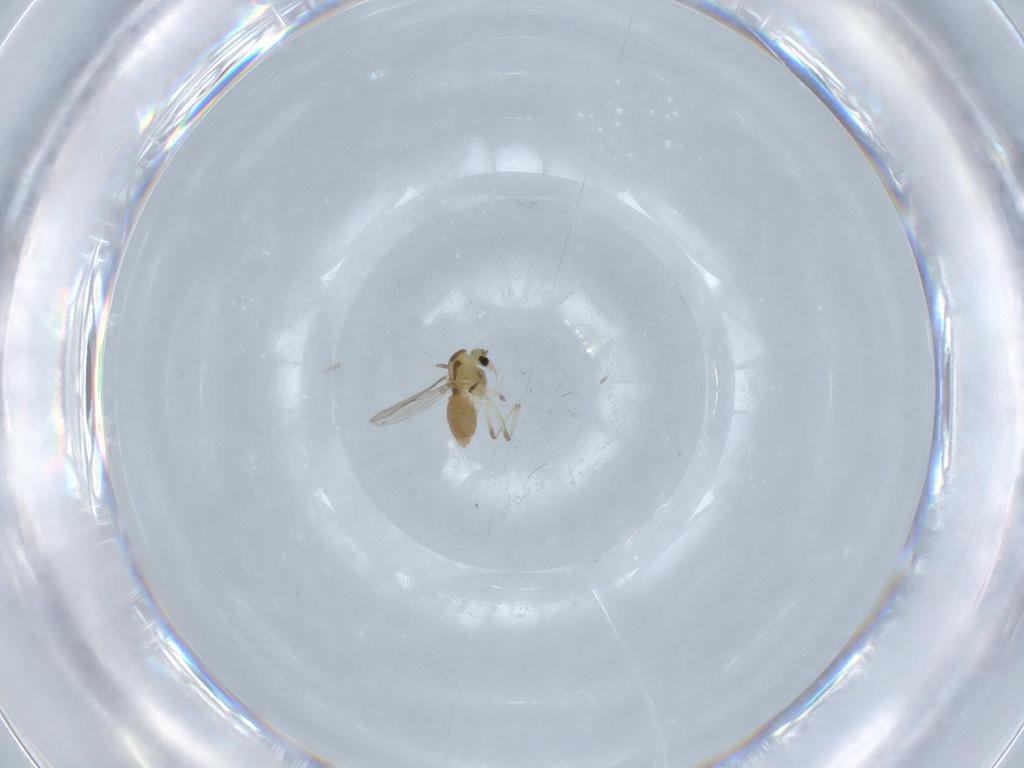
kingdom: Animalia
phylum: Arthropoda
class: Insecta
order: Diptera
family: Chironomidae
